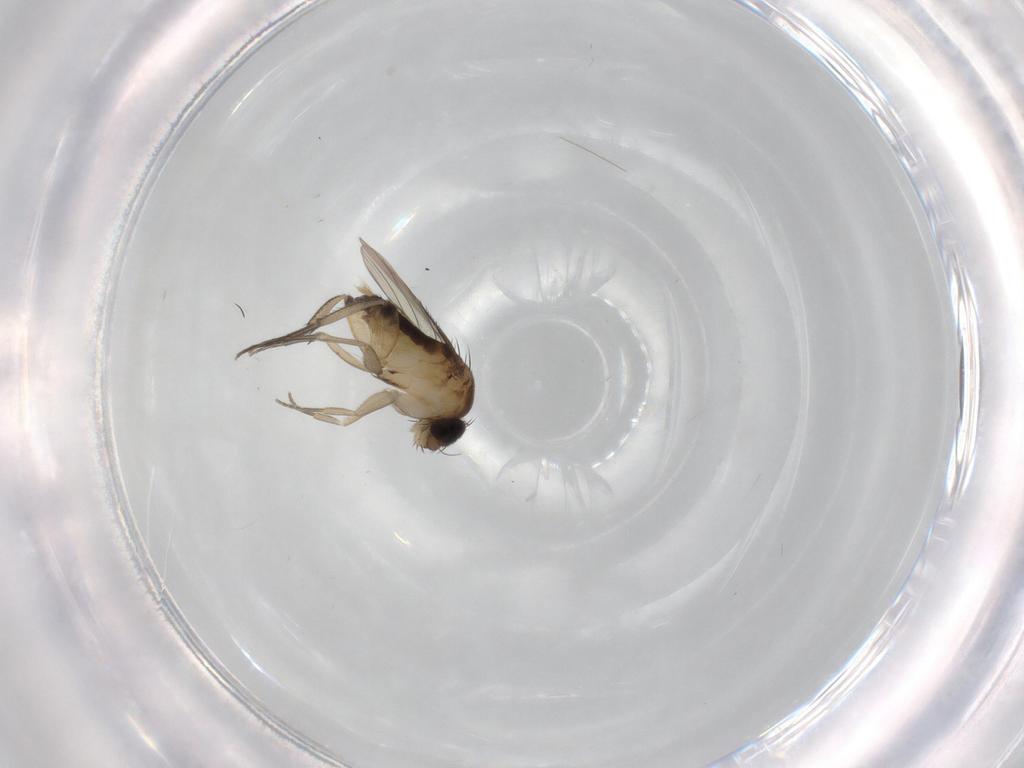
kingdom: Animalia
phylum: Arthropoda
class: Insecta
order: Diptera
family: Phoridae
